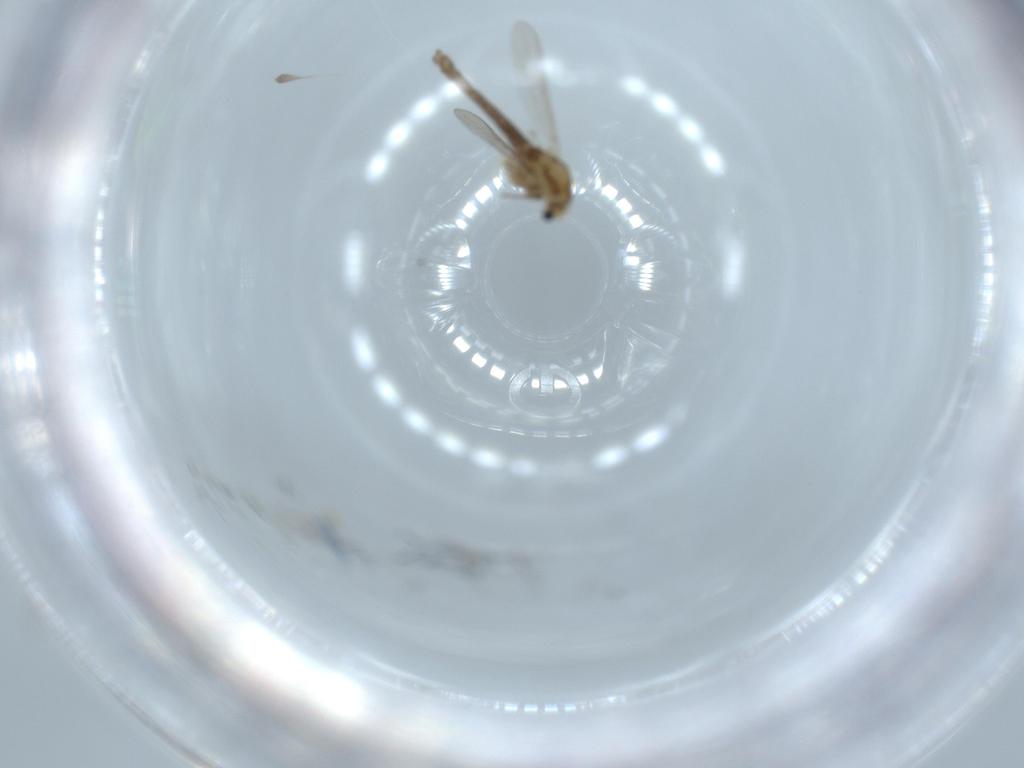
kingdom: Animalia
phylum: Arthropoda
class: Insecta
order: Diptera
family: Chironomidae
